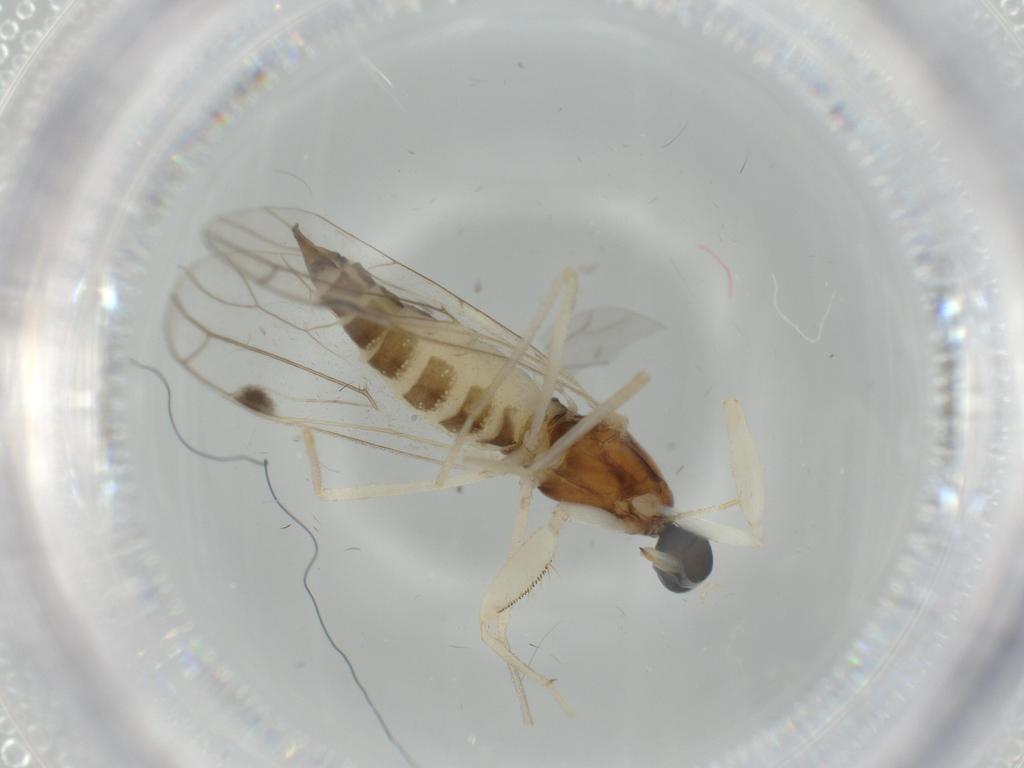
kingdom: Animalia
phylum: Arthropoda
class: Insecta
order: Diptera
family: Empididae
